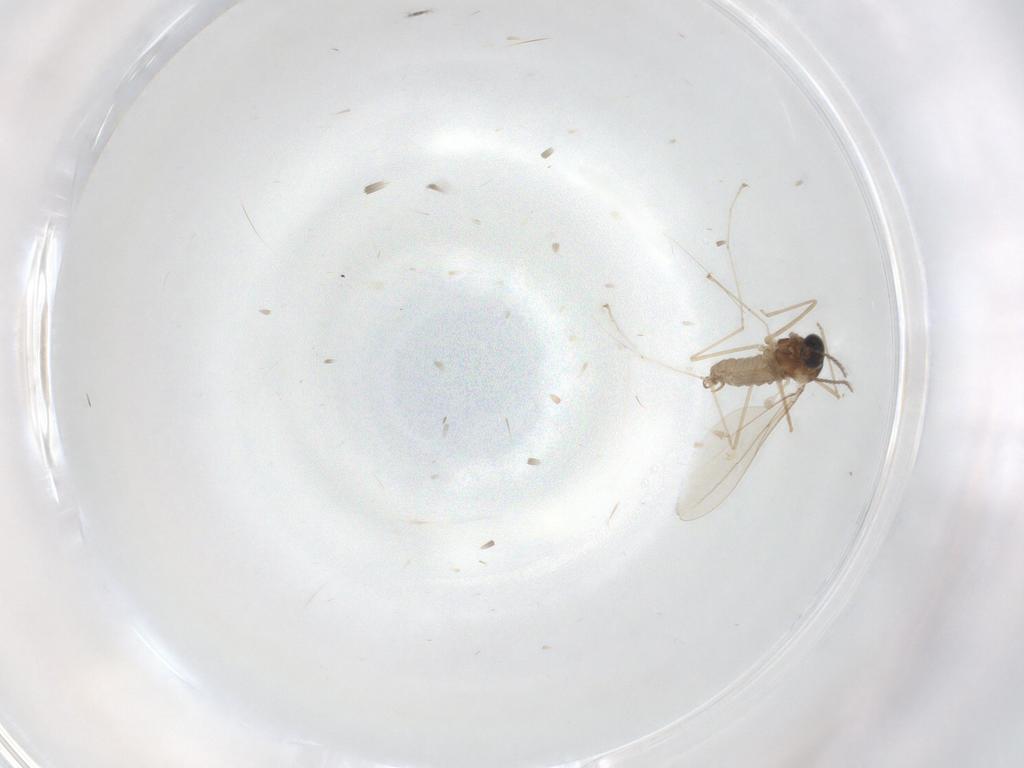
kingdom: Animalia
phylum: Arthropoda
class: Insecta
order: Diptera
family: Cecidomyiidae
